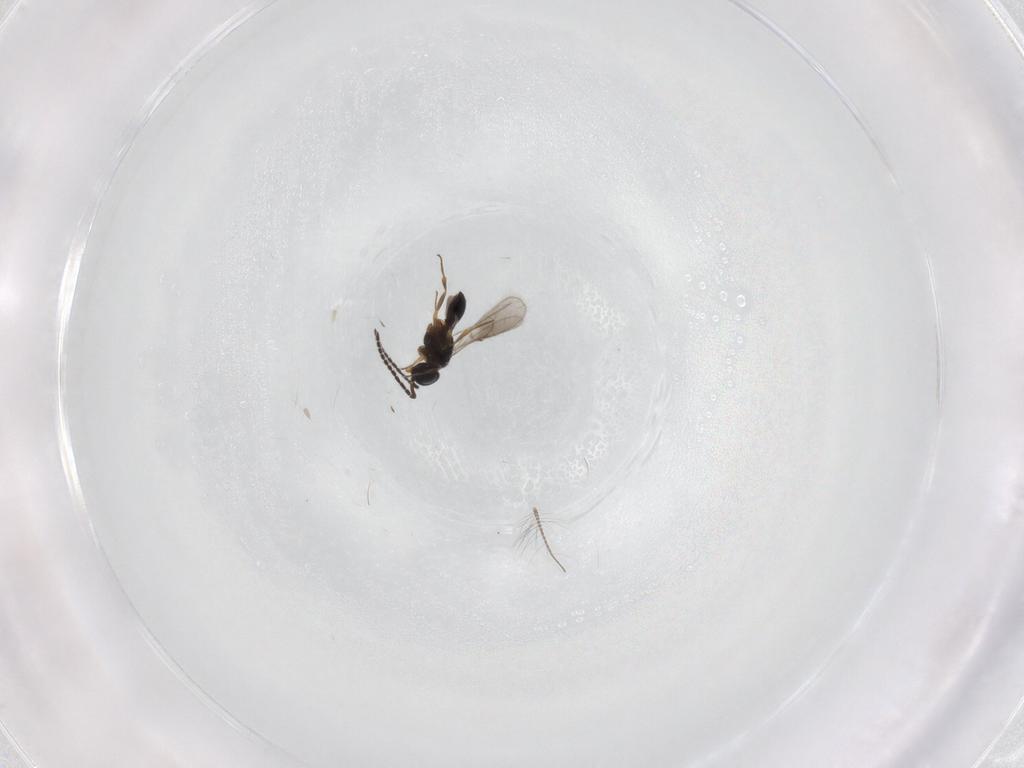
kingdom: Animalia
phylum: Arthropoda
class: Insecta
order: Hymenoptera
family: Scelionidae
